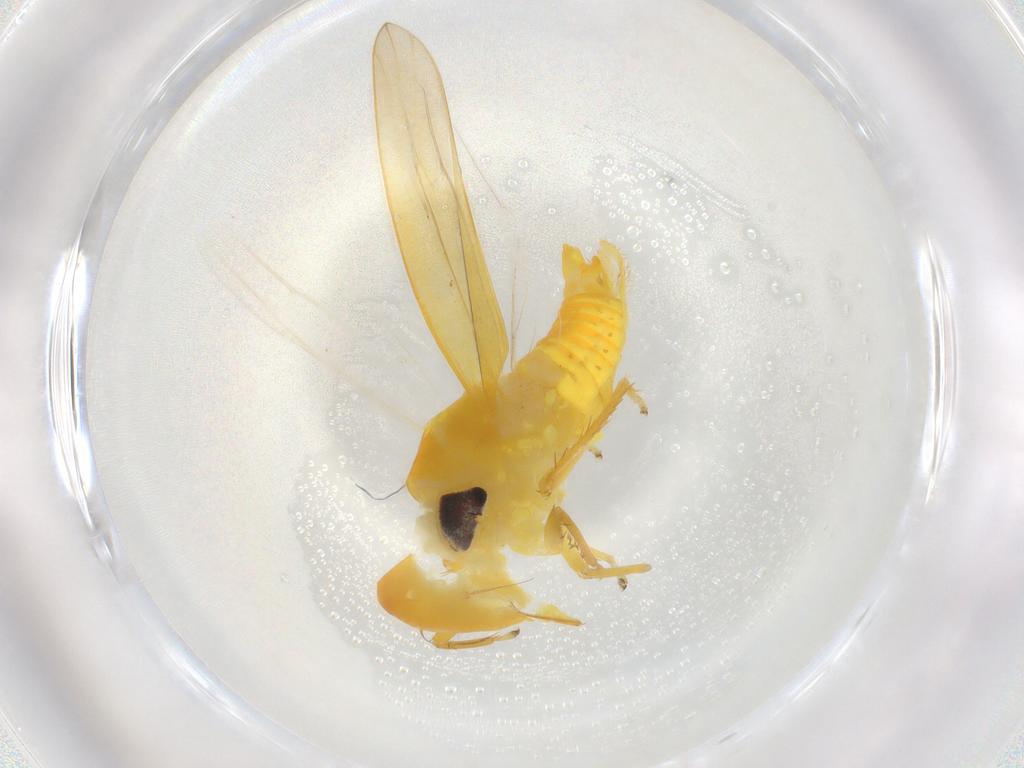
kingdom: Animalia
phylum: Arthropoda
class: Insecta
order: Hemiptera
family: Cicadellidae
